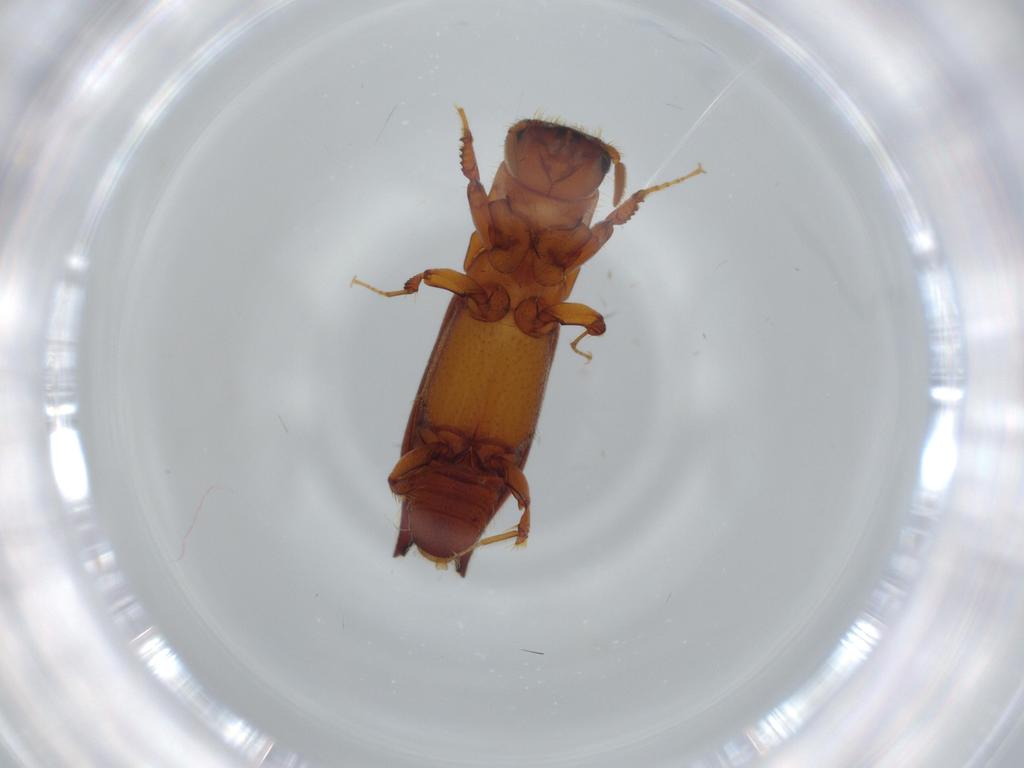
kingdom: Animalia
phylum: Arthropoda
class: Insecta
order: Coleoptera
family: Curculionidae
